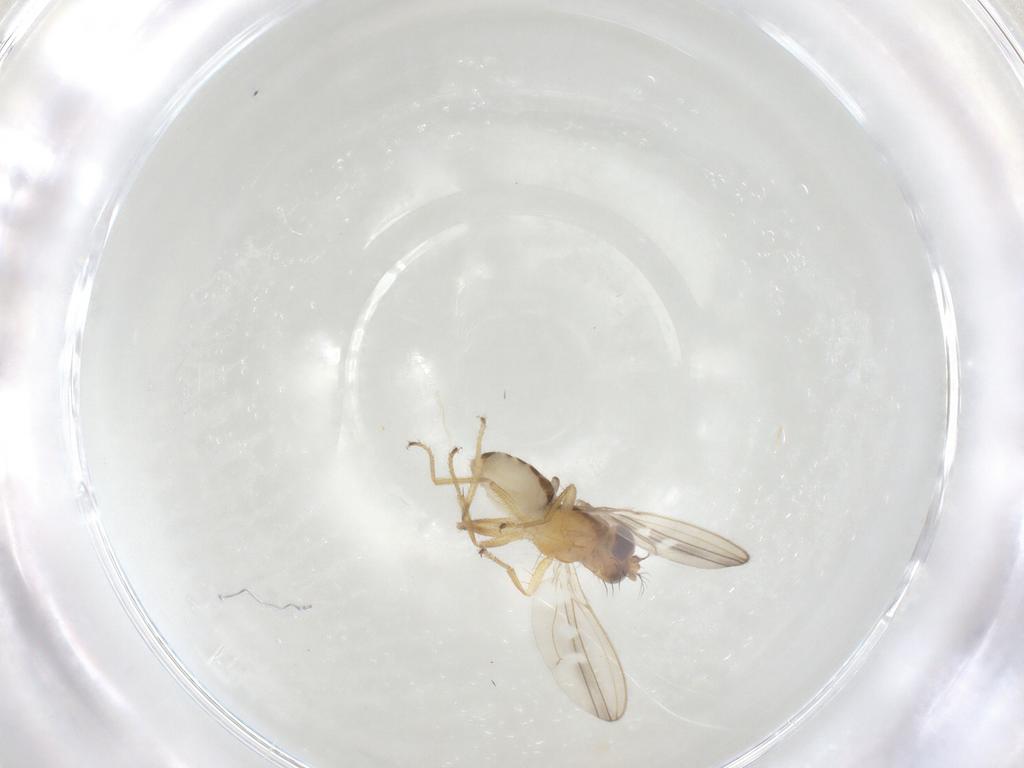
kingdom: Animalia
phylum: Arthropoda
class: Insecta
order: Diptera
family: Periscelididae
